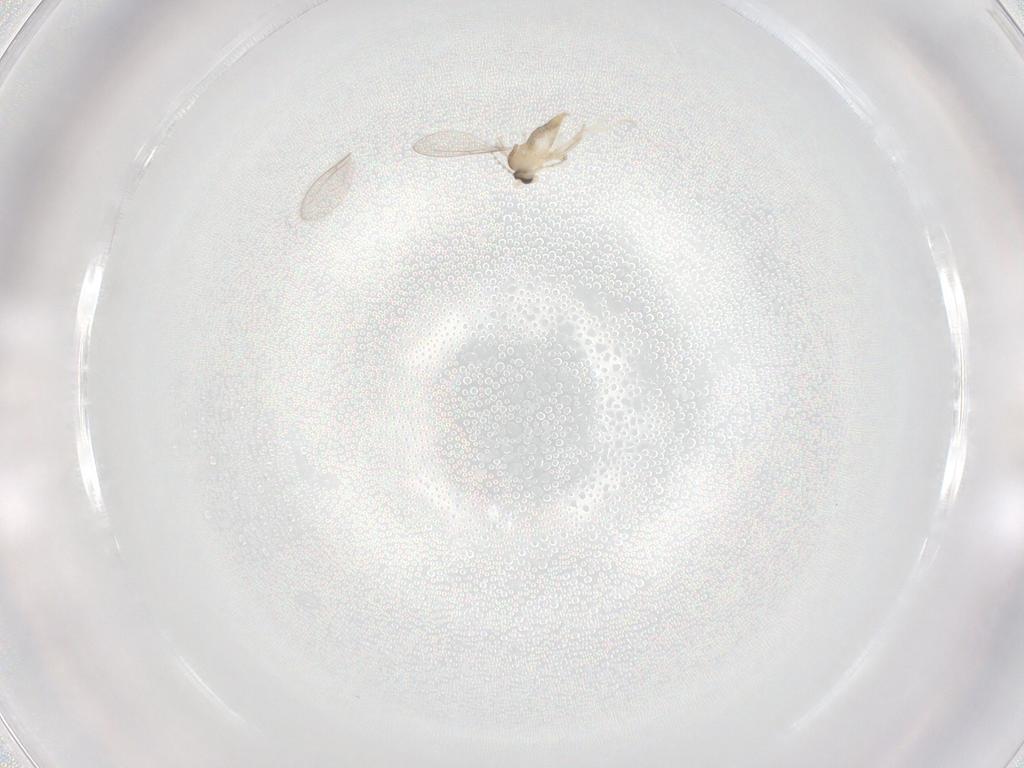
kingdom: Animalia
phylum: Arthropoda
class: Insecta
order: Diptera
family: Cecidomyiidae
